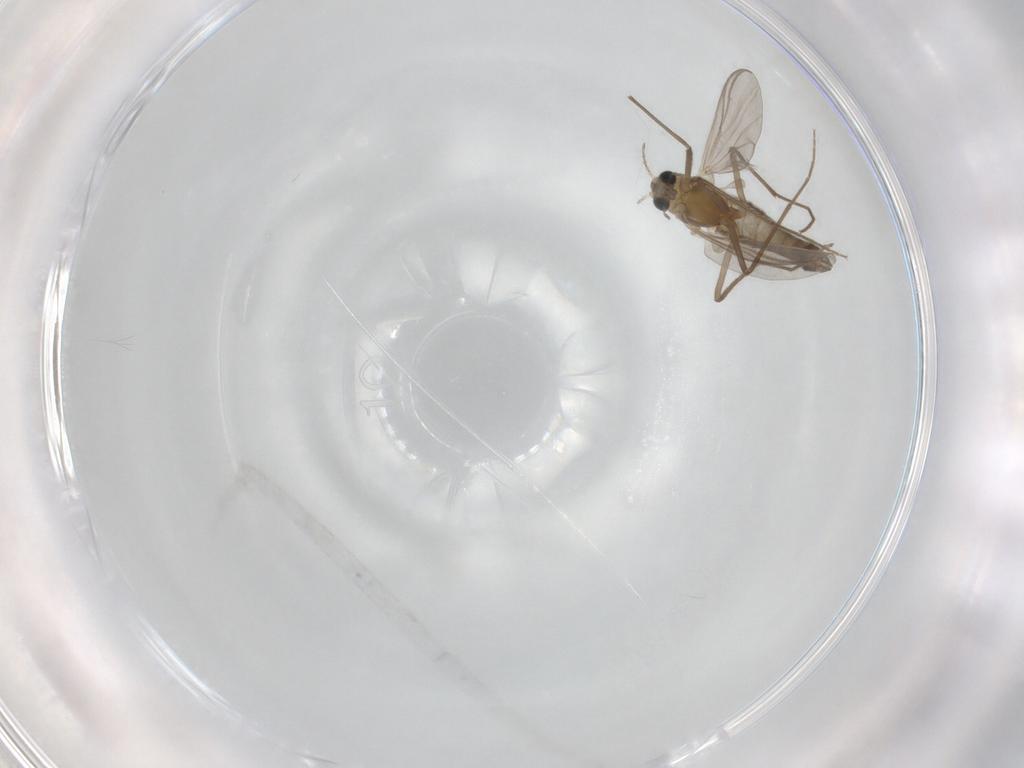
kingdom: Animalia
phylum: Arthropoda
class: Insecta
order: Diptera
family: Chironomidae
